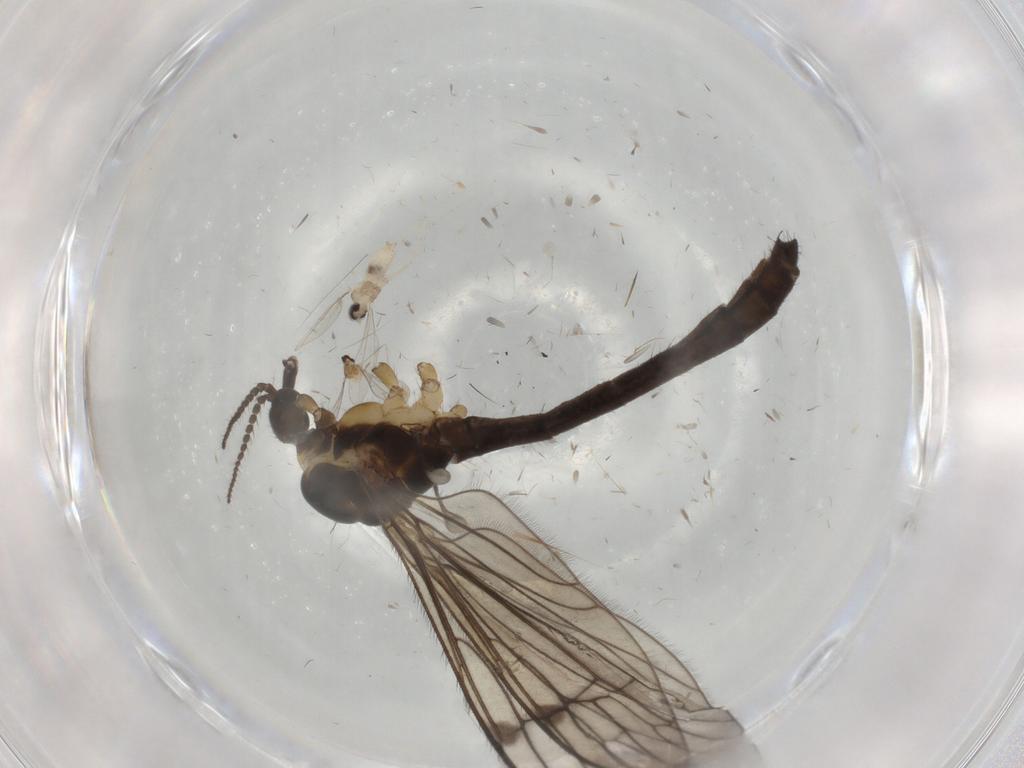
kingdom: Animalia
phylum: Arthropoda
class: Insecta
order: Diptera
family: Limoniidae
